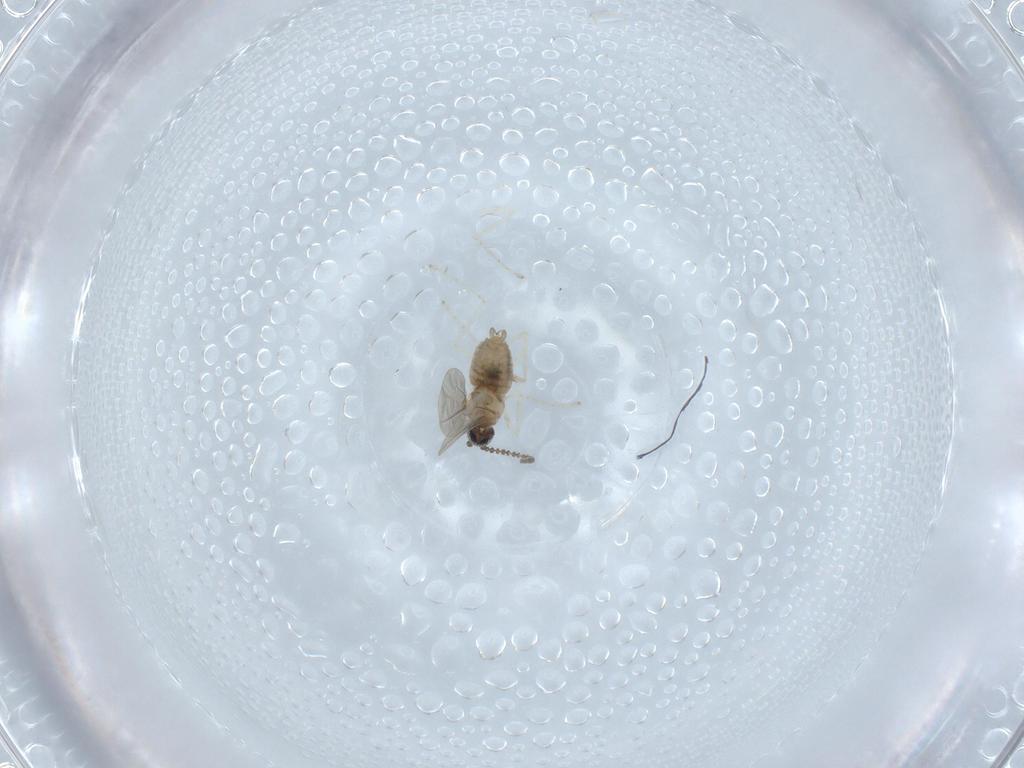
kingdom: Animalia
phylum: Arthropoda
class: Insecta
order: Diptera
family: Cecidomyiidae
